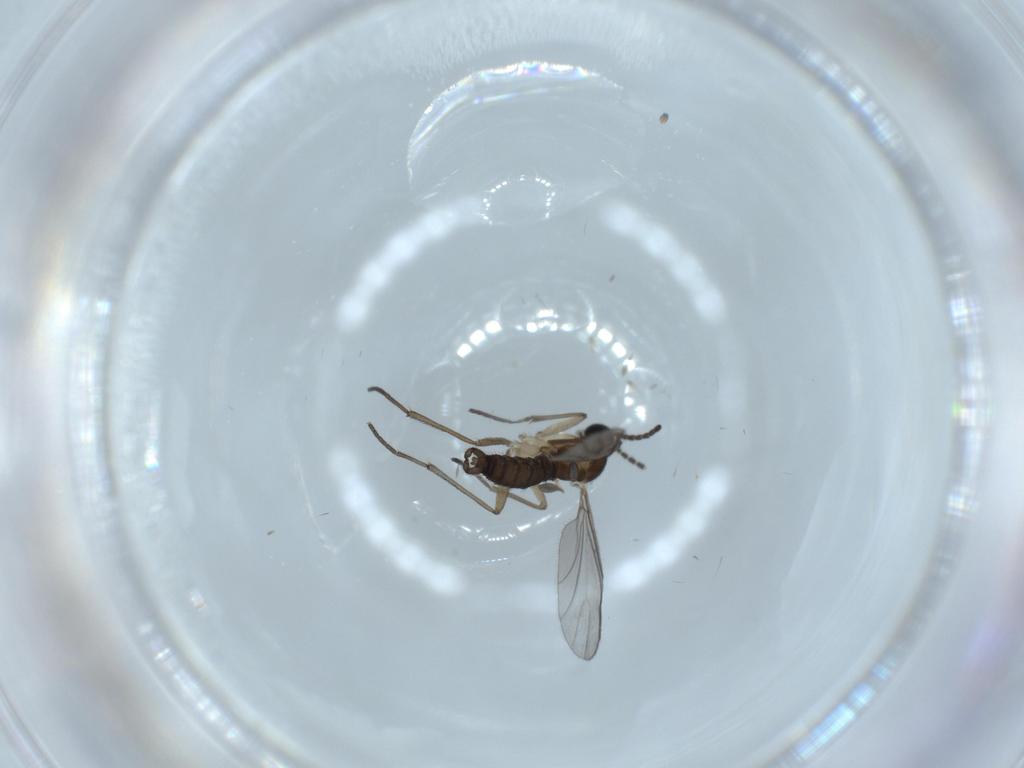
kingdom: Animalia
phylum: Arthropoda
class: Insecta
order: Diptera
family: Sciaridae
